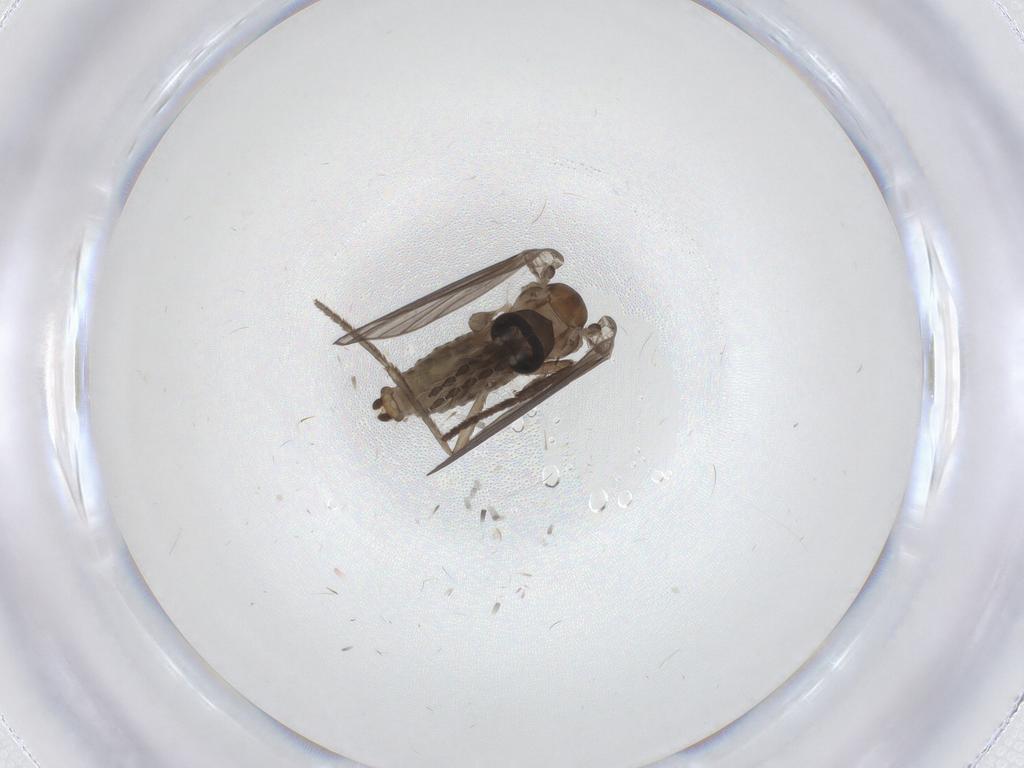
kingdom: Animalia
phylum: Arthropoda
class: Insecta
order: Diptera
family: Psychodidae
